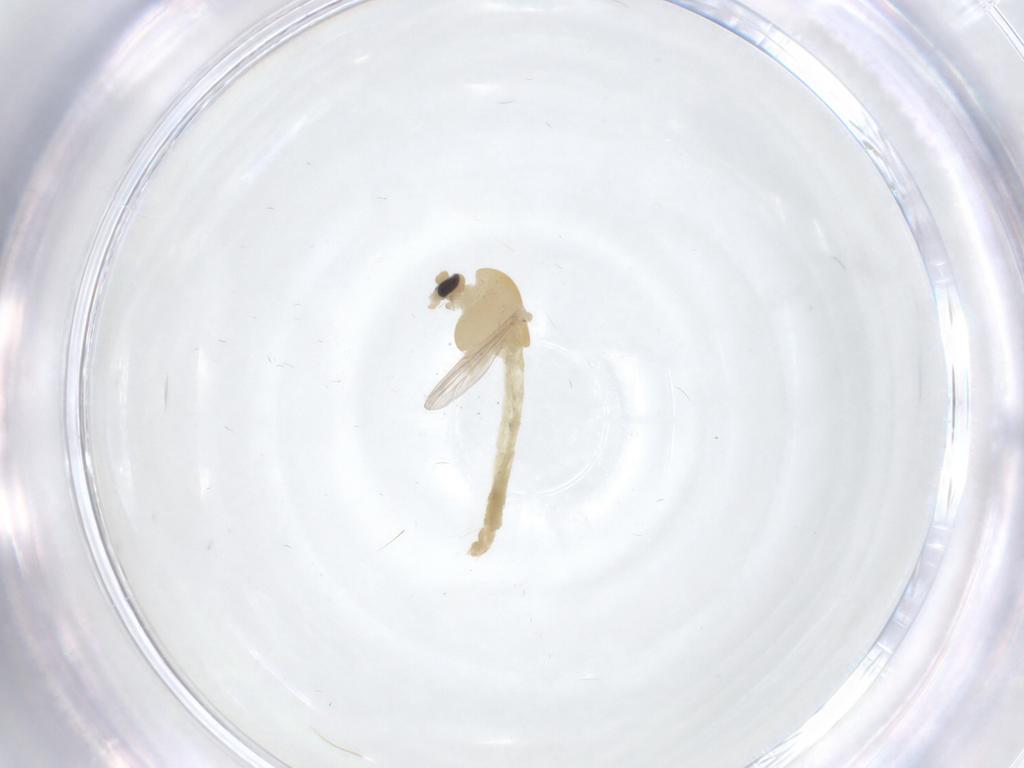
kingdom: Animalia
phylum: Arthropoda
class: Insecta
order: Diptera
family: Chironomidae
